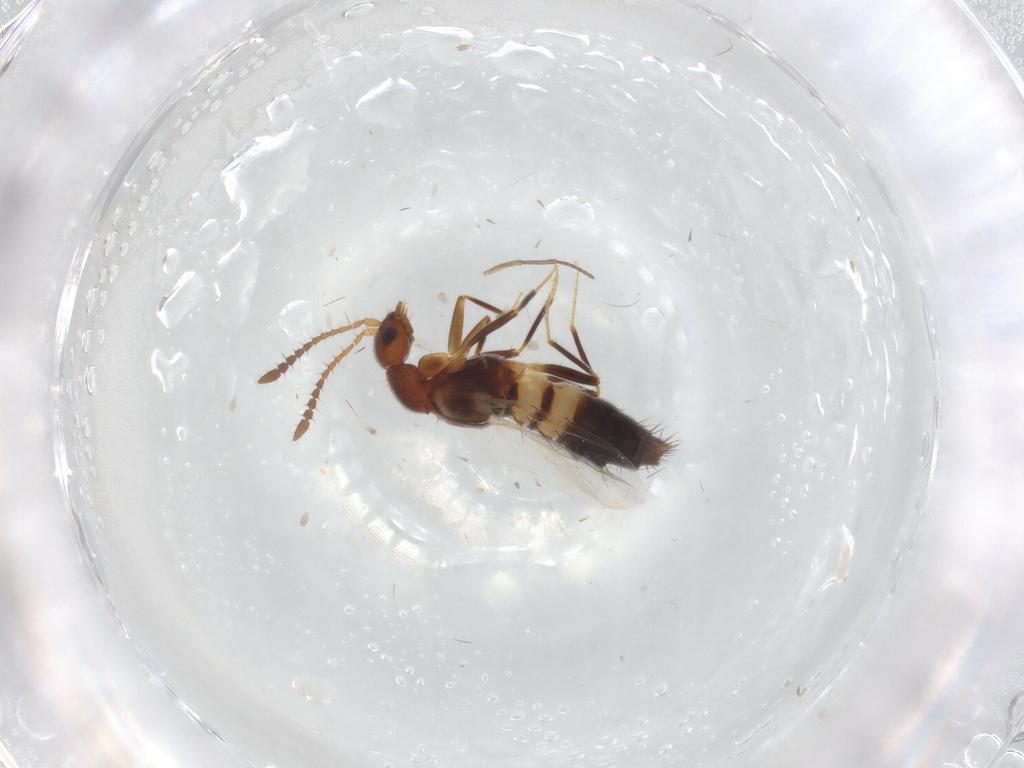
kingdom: Animalia
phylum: Arthropoda
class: Insecta
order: Coleoptera
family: Staphylinidae
